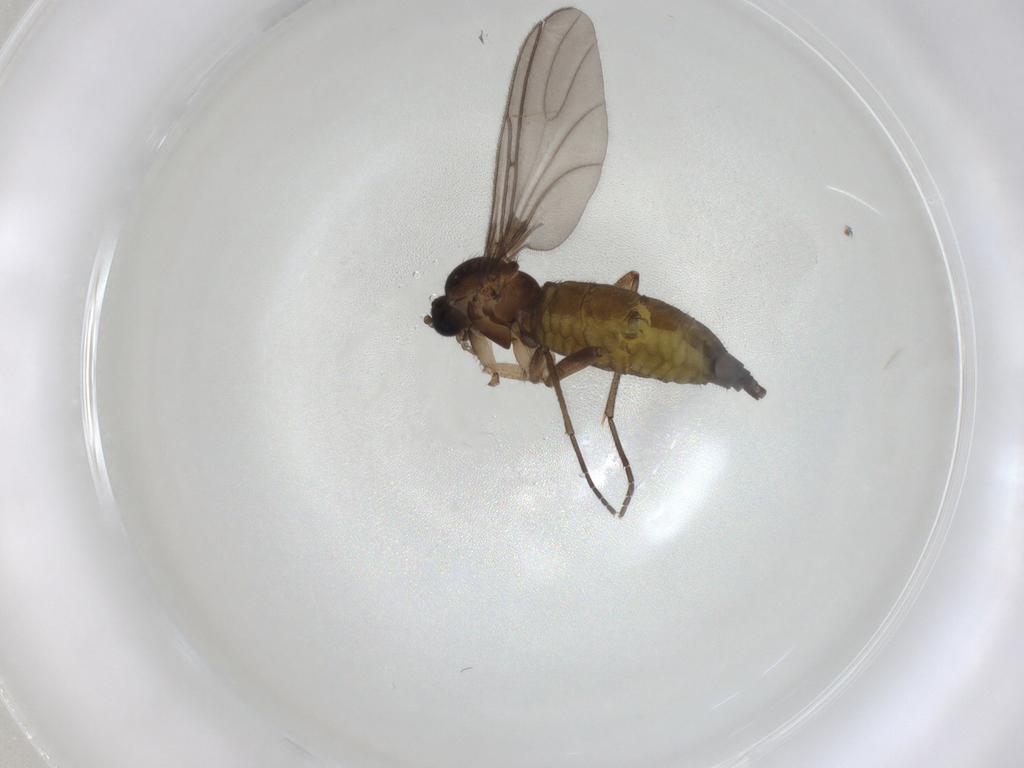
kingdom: Animalia
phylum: Arthropoda
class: Insecta
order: Diptera
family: Sciaridae
